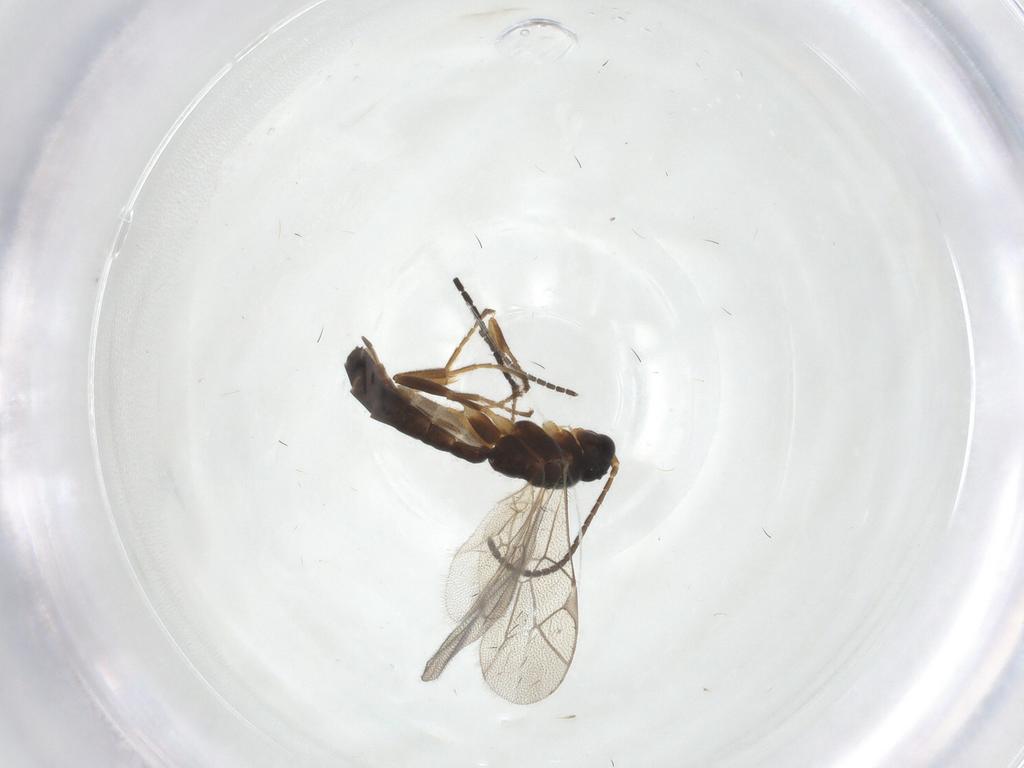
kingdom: Animalia
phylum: Arthropoda
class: Insecta
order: Hymenoptera
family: Ichneumonidae
